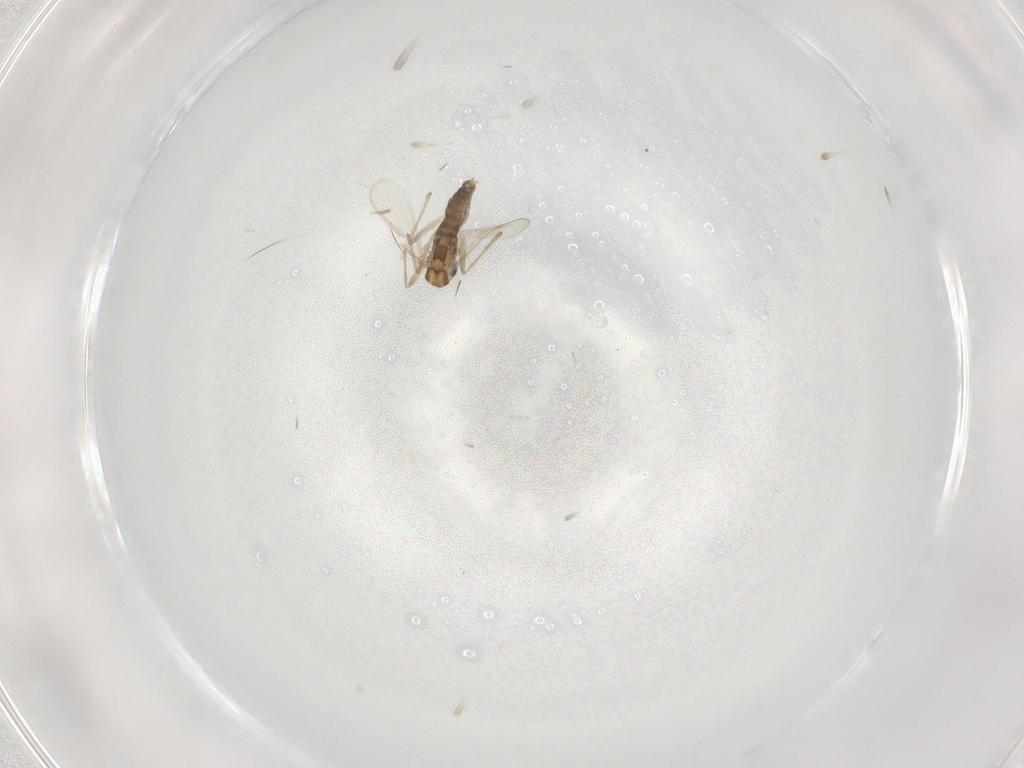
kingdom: Animalia
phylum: Arthropoda
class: Insecta
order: Diptera
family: Chironomidae
